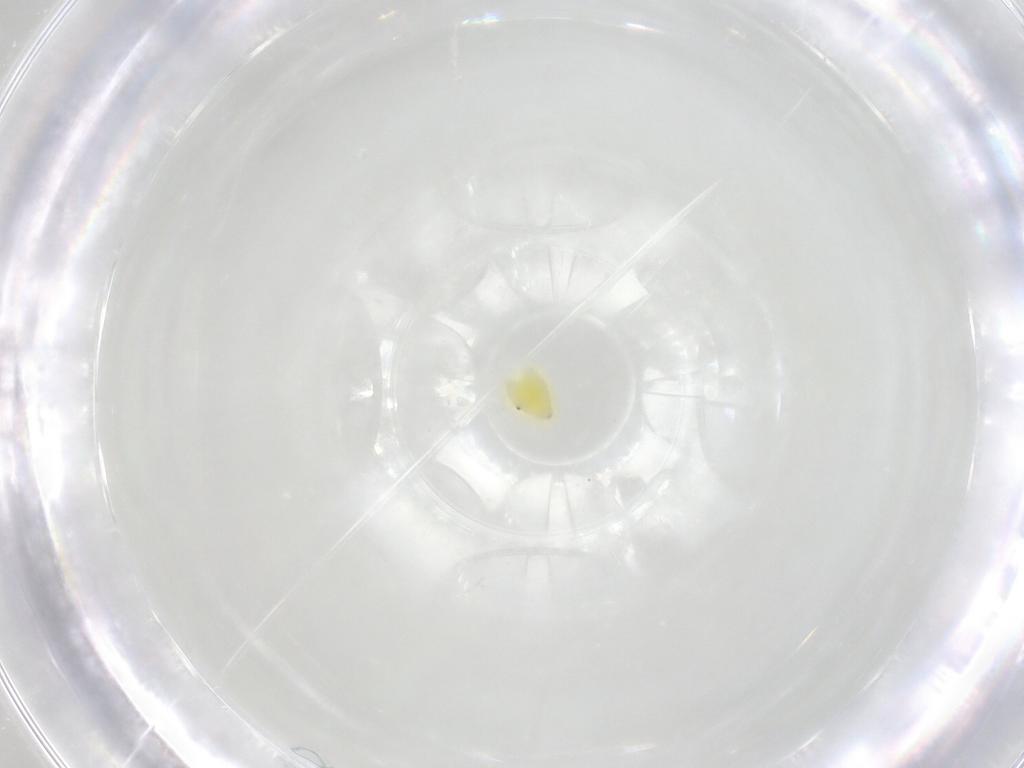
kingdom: Animalia
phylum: Arthropoda
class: Insecta
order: Hemiptera
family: Aleyrodidae
